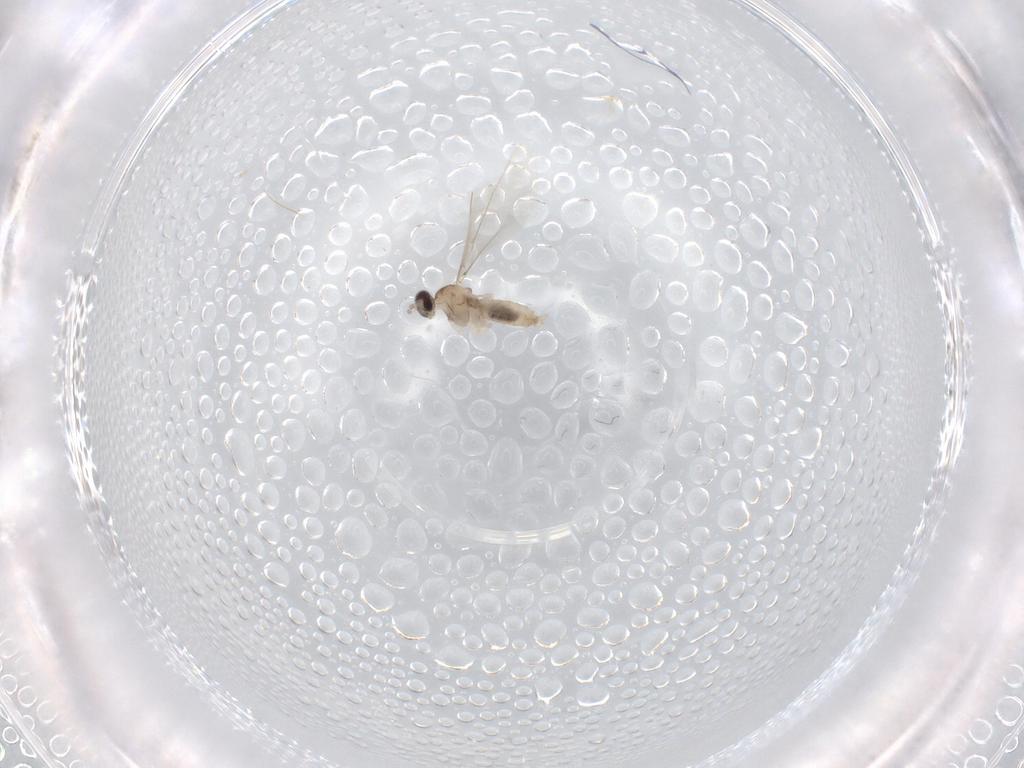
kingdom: Animalia
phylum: Arthropoda
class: Insecta
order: Diptera
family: Cecidomyiidae
